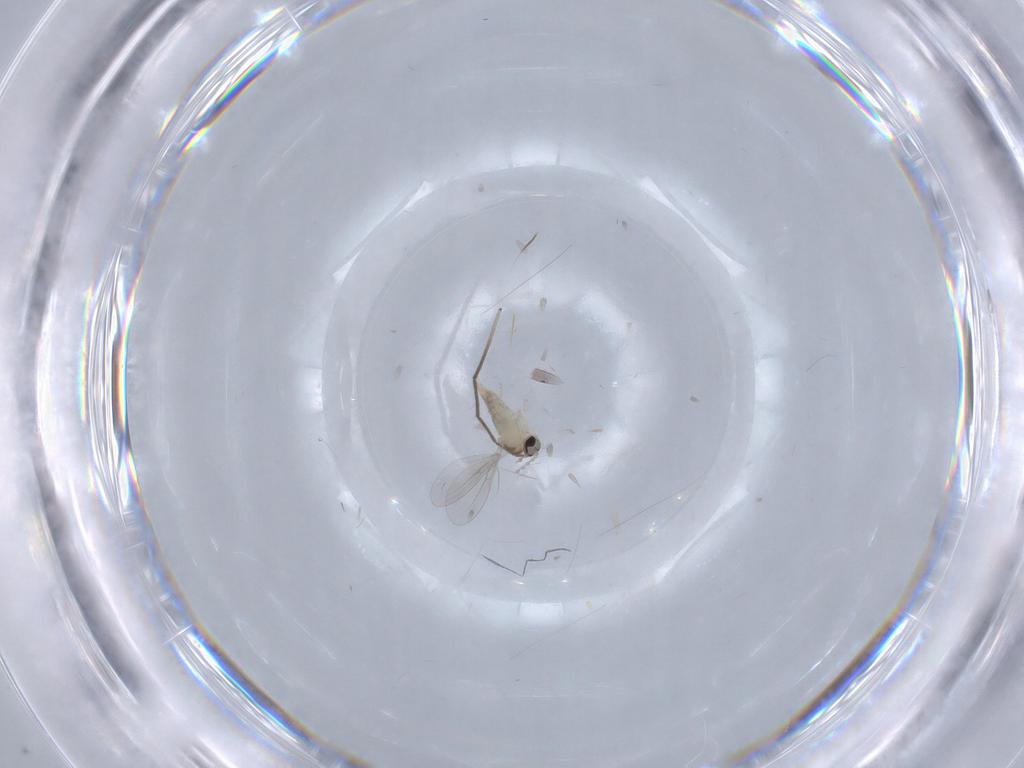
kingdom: Animalia
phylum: Arthropoda
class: Insecta
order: Diptera
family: Cecidomyiidae
